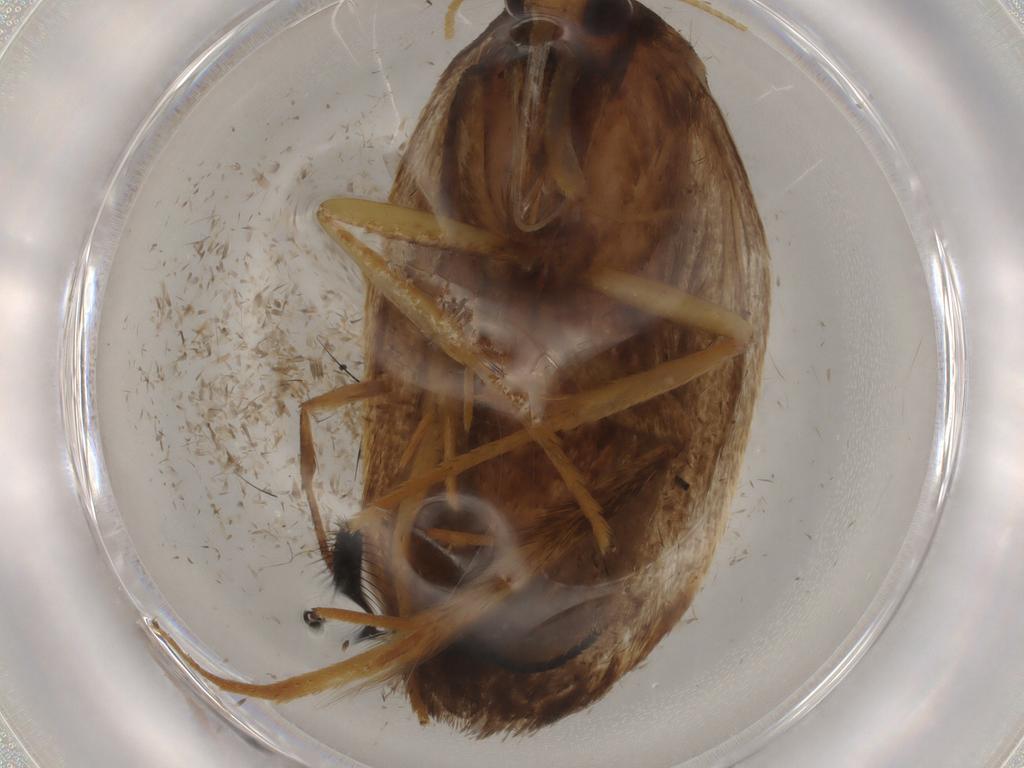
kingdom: Animalia
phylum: Arthropoda
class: Insecta
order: Lepidoptera
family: Lecithoceridae
